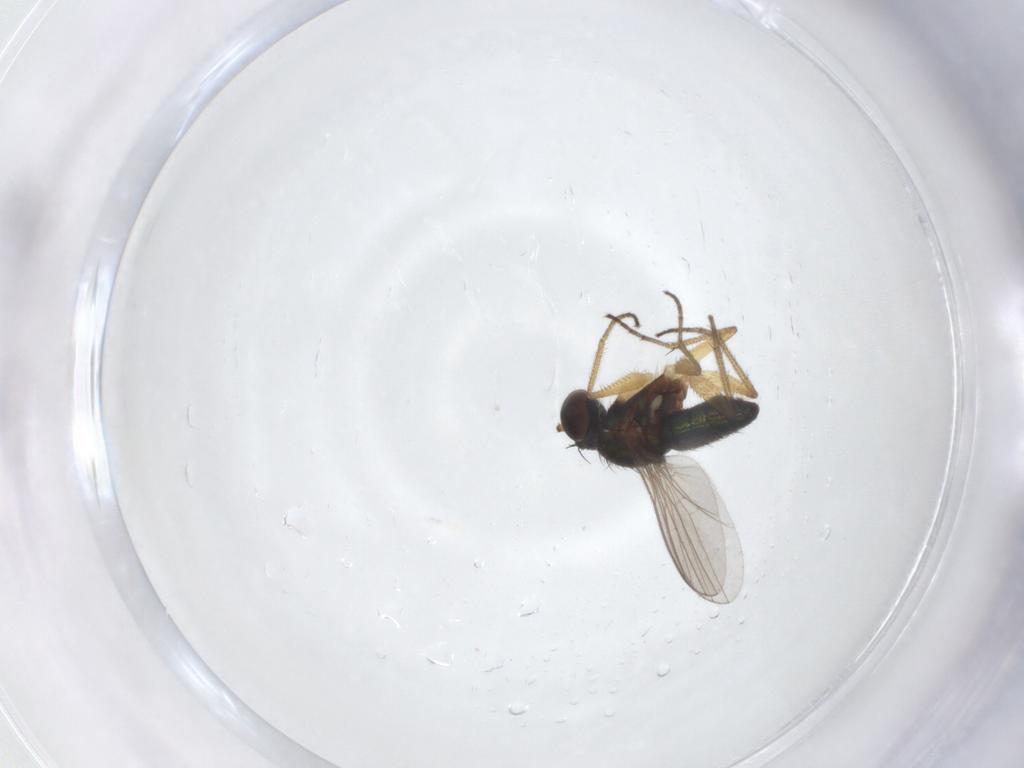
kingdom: Animalia
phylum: Arthropoda
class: Insecta
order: Diptera
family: Dolichopodidae
